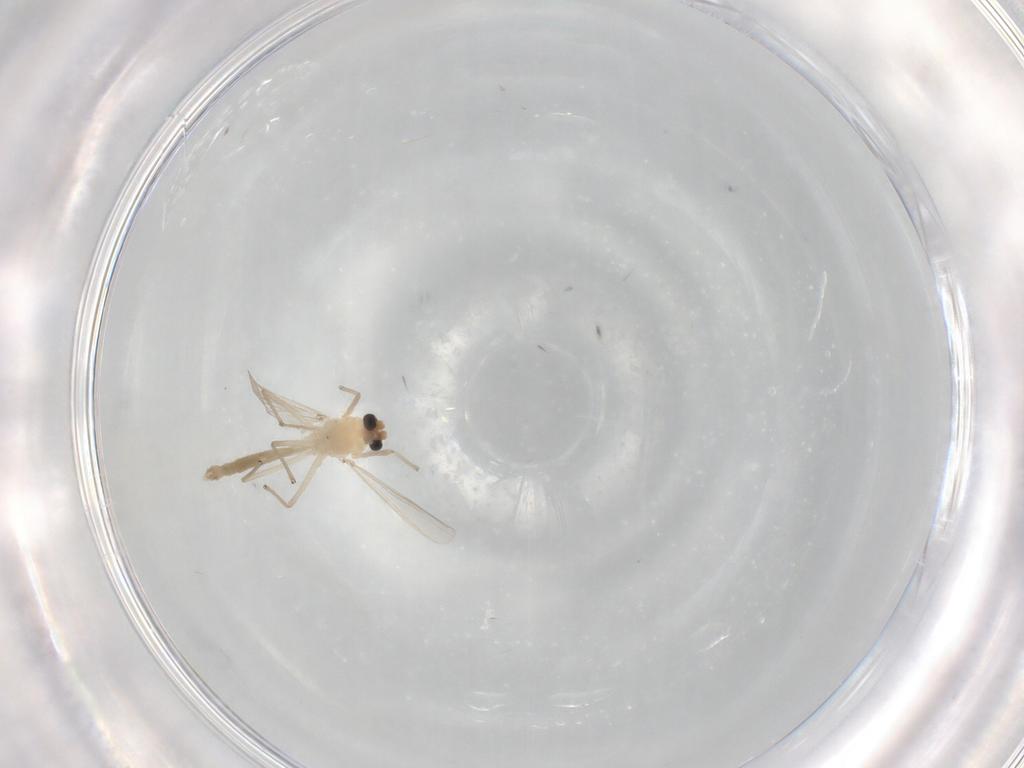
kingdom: Animalia
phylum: Arthropoda
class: Insecta
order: Diptera
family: Chironomidae
